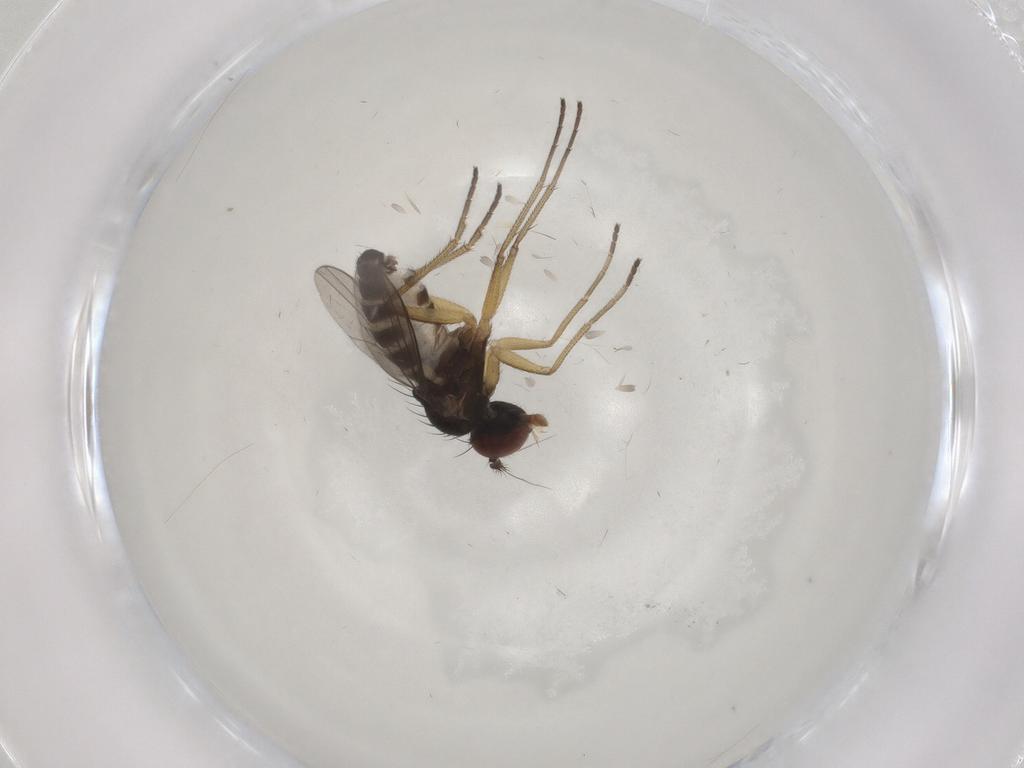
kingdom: Animalia
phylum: Arthropoda
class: Insecta
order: Diptera
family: Dolichopodidae
